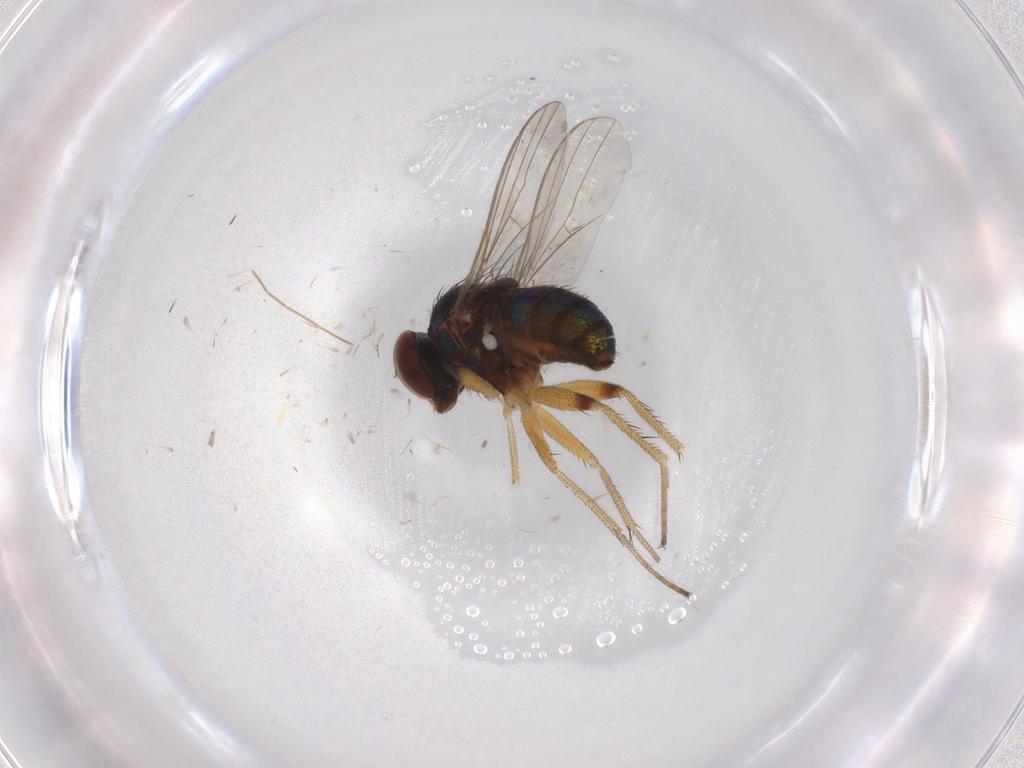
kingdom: Animalia
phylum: Arthropoda
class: Insecta
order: Diptera
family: Chironomidae
